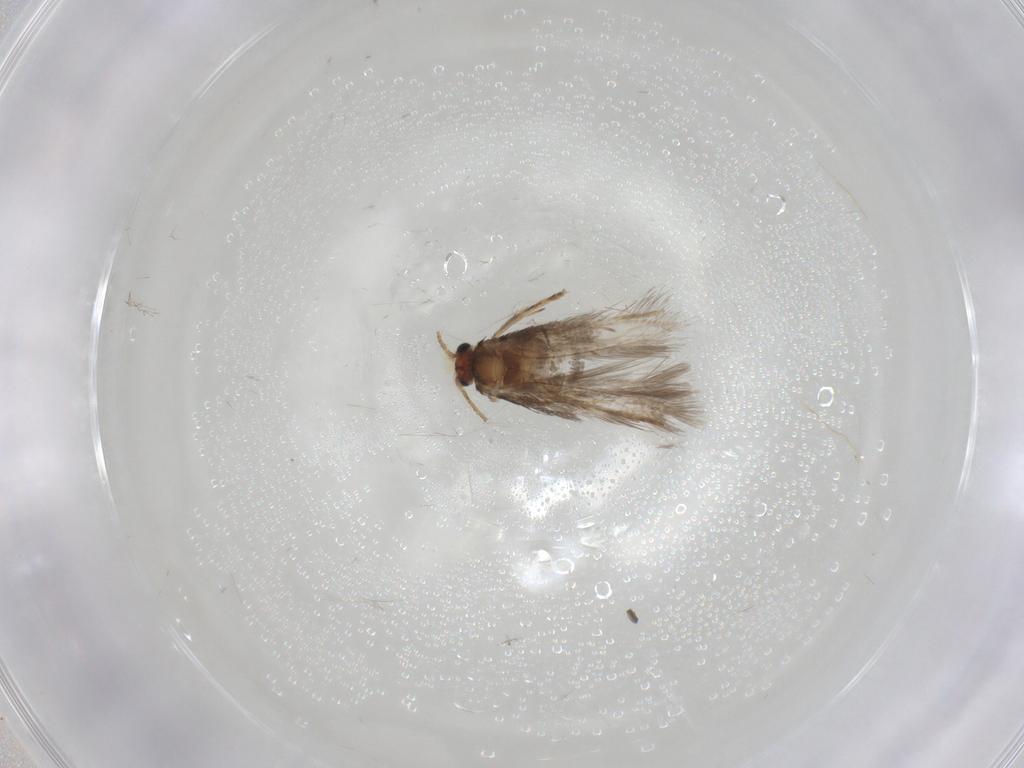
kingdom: Animalia
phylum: Arthropoda
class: Insecta
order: Lepidoptera
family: Nepticulidae
